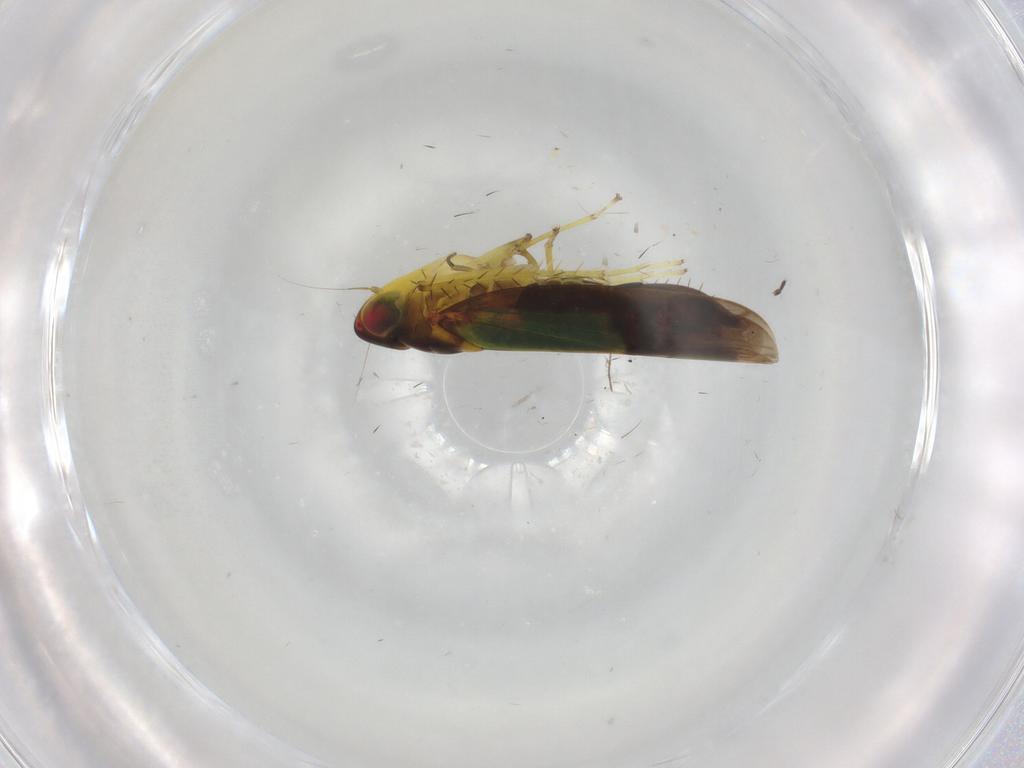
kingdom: Animalia
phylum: Arthropoda
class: Insecta
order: Hemiptera
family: Cicadellidae
